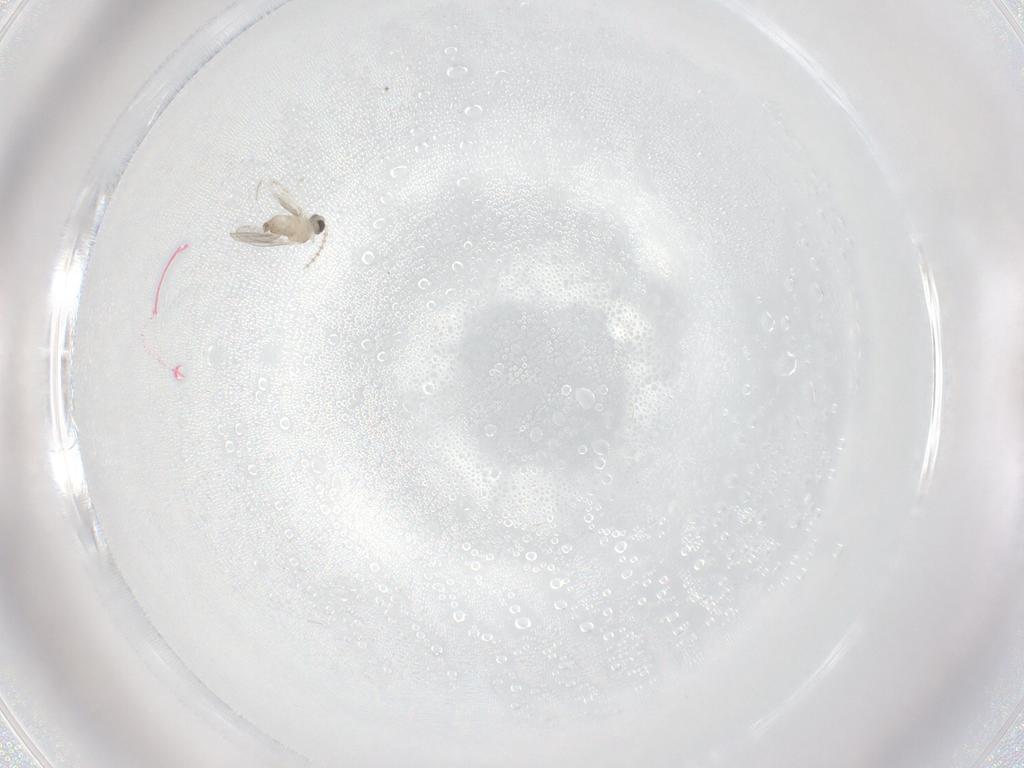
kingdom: Animalia
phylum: Arthropoda
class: Insecta
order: Diptera
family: Cecidomyiidae
